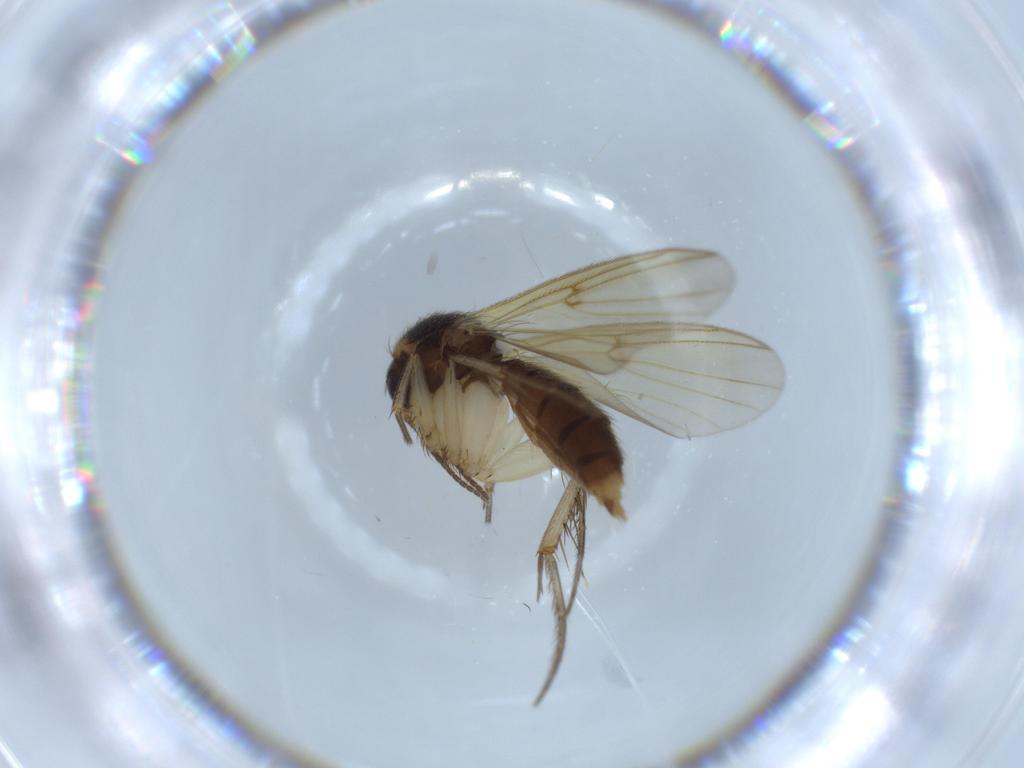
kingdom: Animalia
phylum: Arthropoda
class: Insecta
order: Diptera
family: Mycetophilidae
